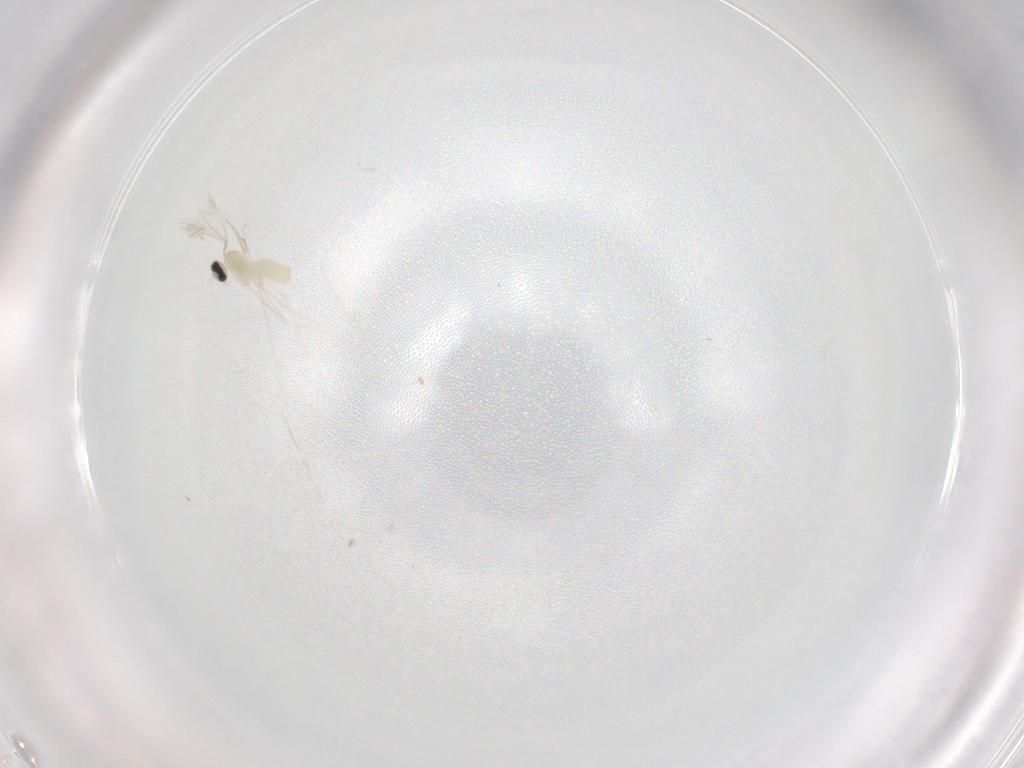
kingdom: Animalia
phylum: Arthropoda
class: Insecta
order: Diptera
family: Cecidomyiidae
